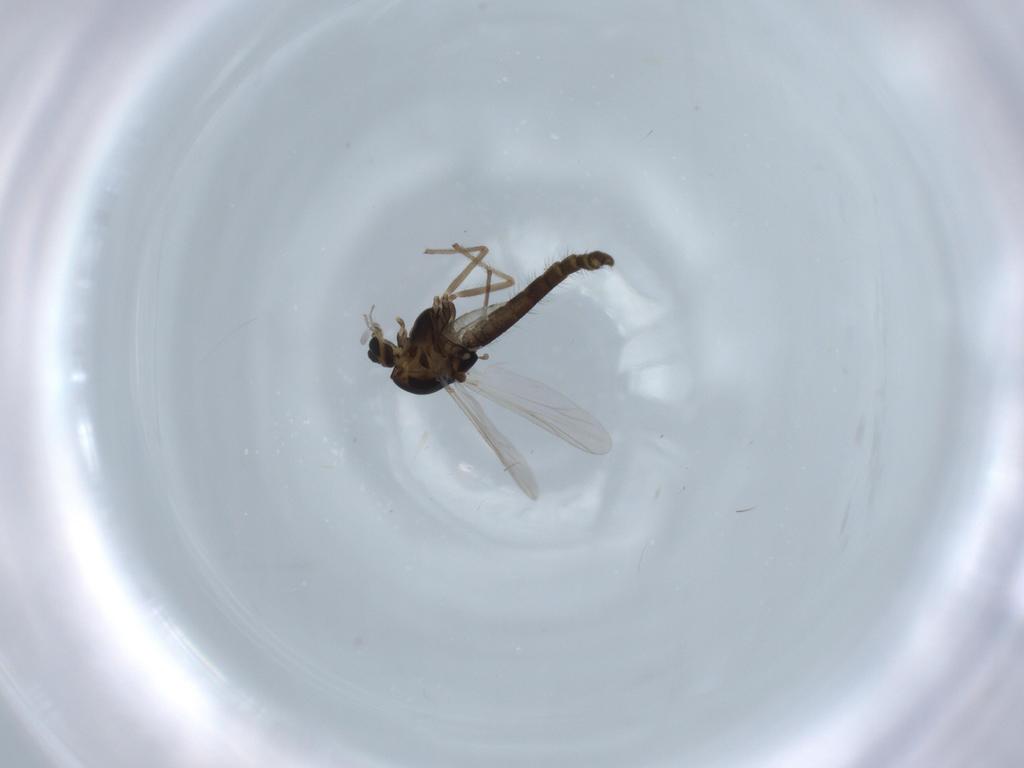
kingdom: Animalia
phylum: Arthropoda
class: Insecta
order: Diptera
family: Chironomidae
